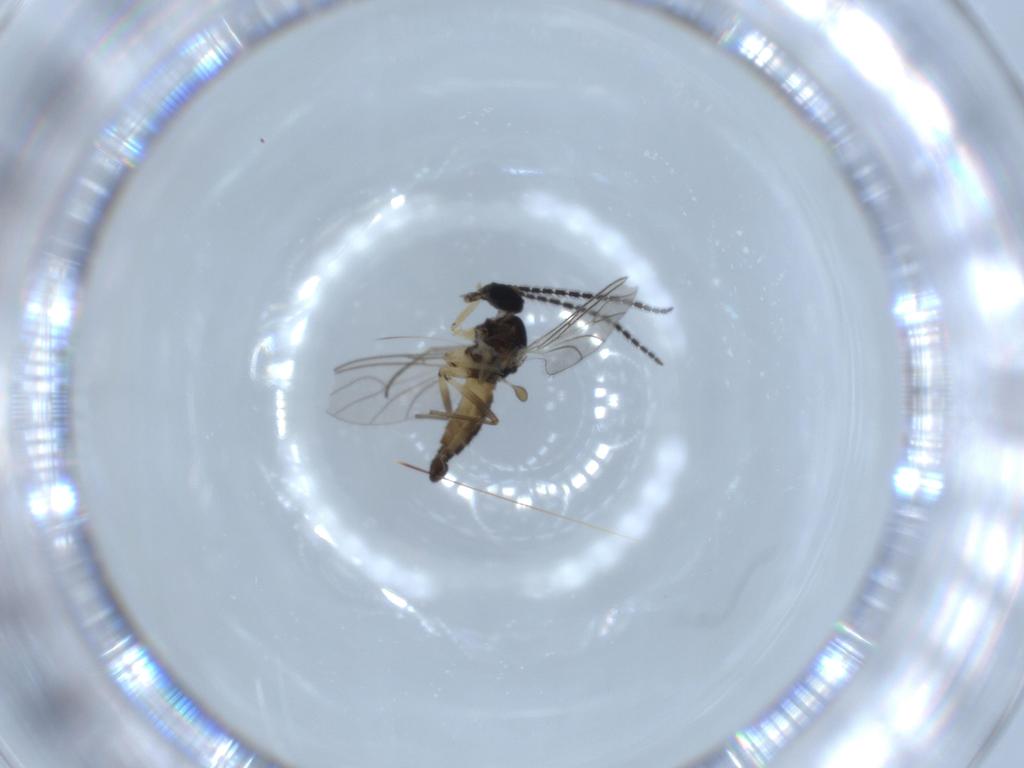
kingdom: Animalia
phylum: Arthropoda
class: Insecta
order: Diptera
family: Sciaridae
